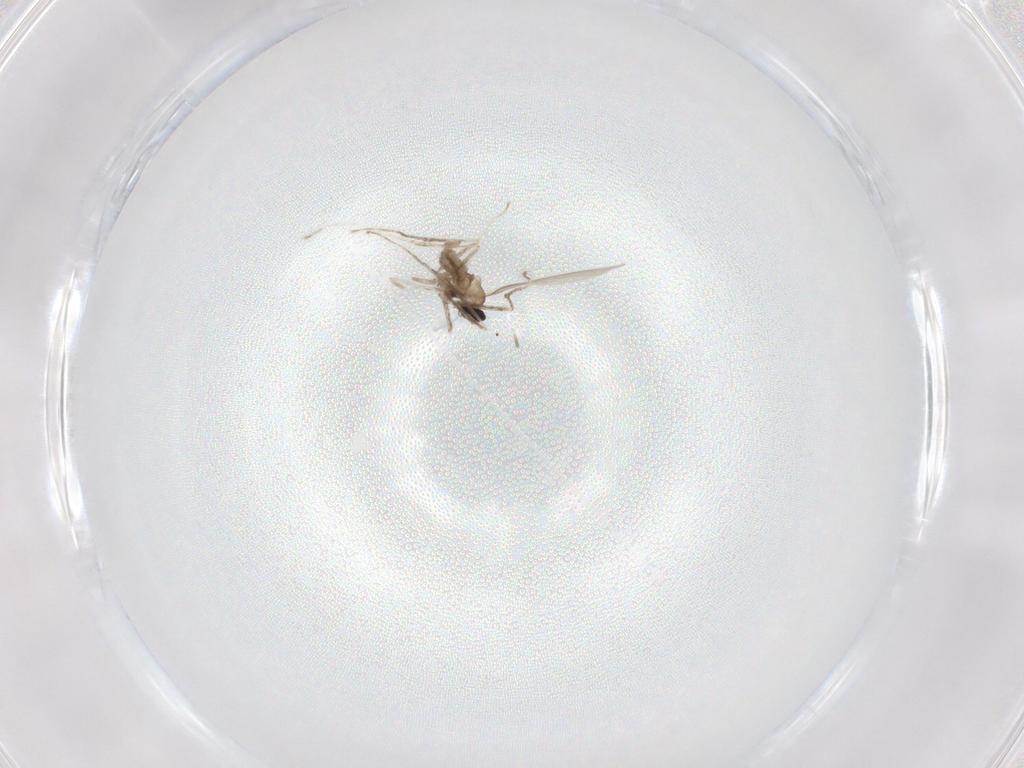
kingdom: Animalia
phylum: Arthropoda
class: Insecta
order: Diptera
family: Cecidomyiidae
